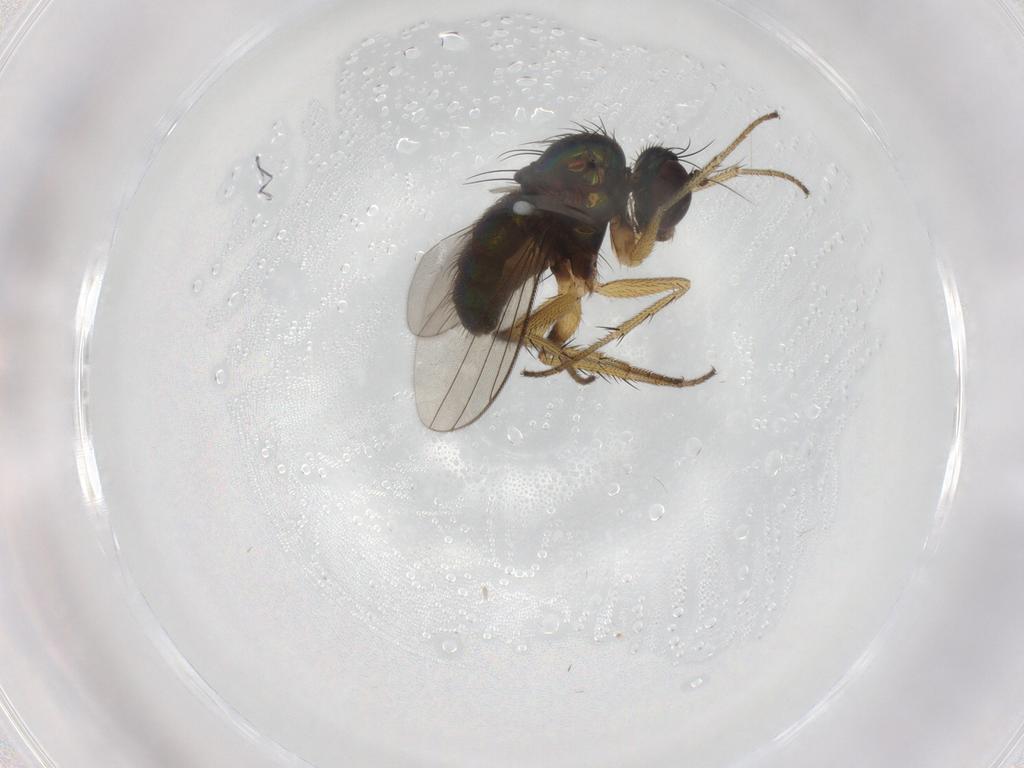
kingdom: Animalia
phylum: Arthropoda
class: Insecta
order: Diptera
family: Dolichopodidae
